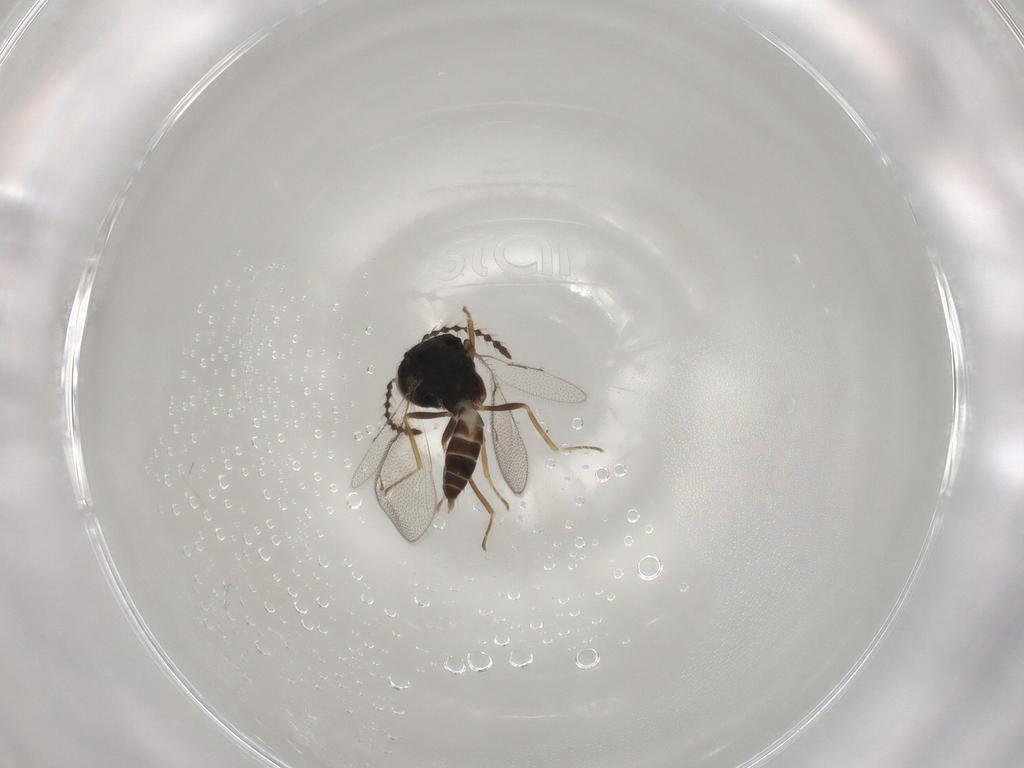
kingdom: Animalia
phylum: Arthropoda
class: Insecta
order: Hymenoptera
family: Pteromalidae
